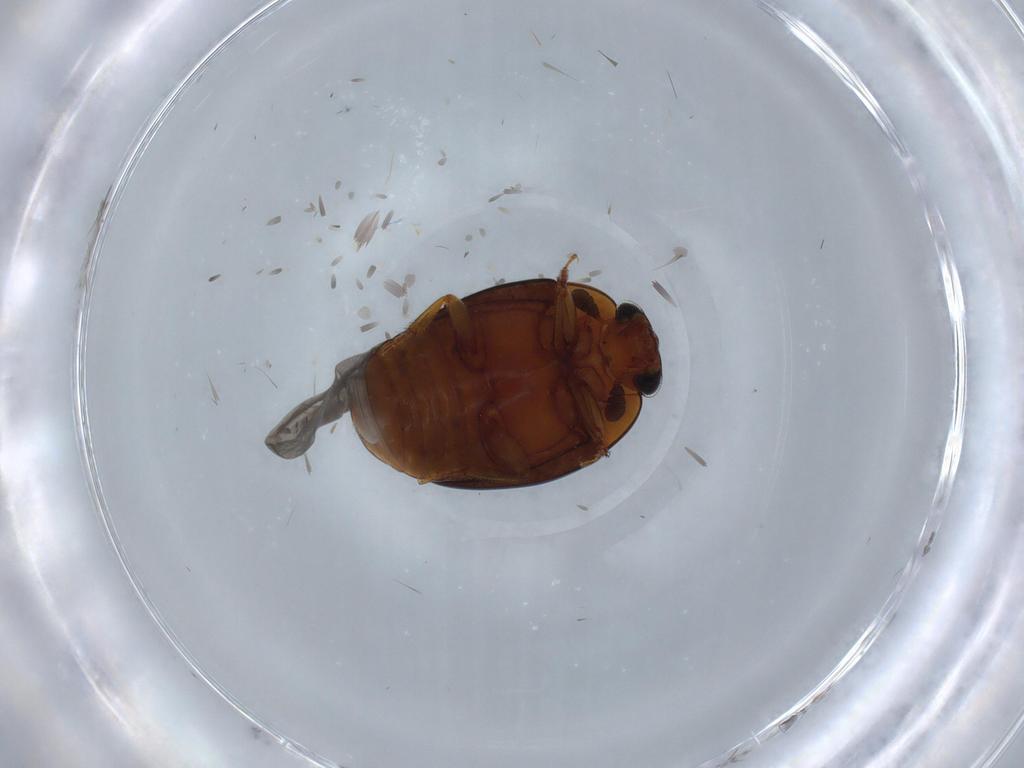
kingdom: Animalia
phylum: Arthropoda
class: Insecta
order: Coleoptera
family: Nitidulidae
